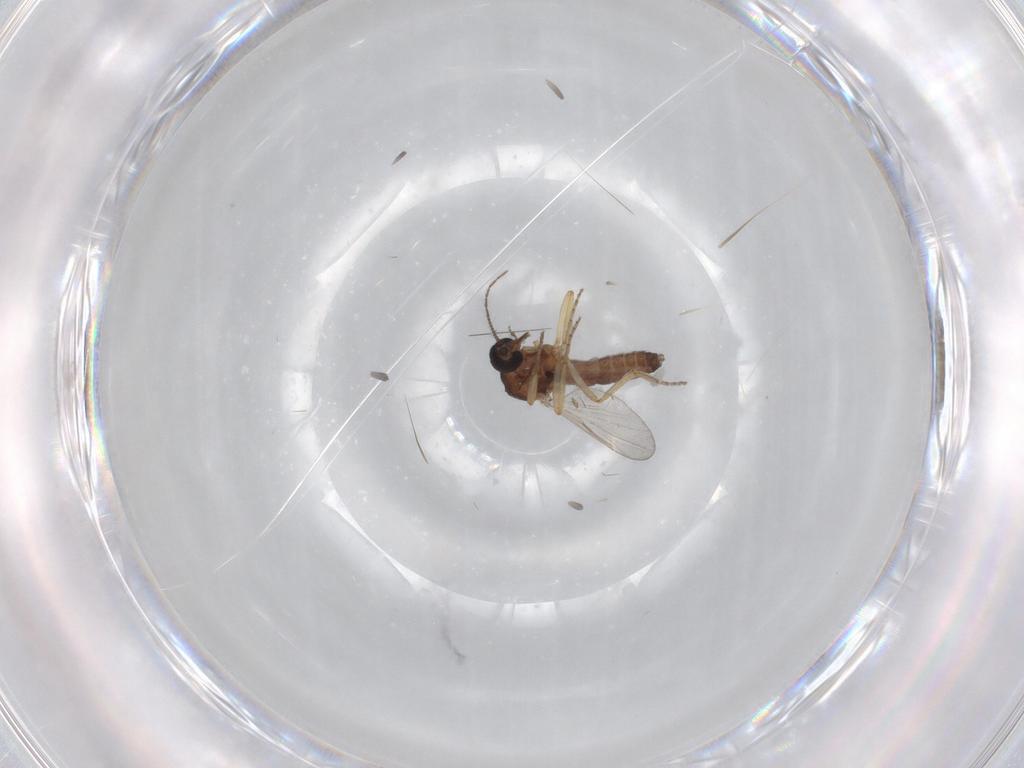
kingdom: Animalia
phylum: Arthropoda
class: Insecta
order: Diptera
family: Ceratopogonidae
